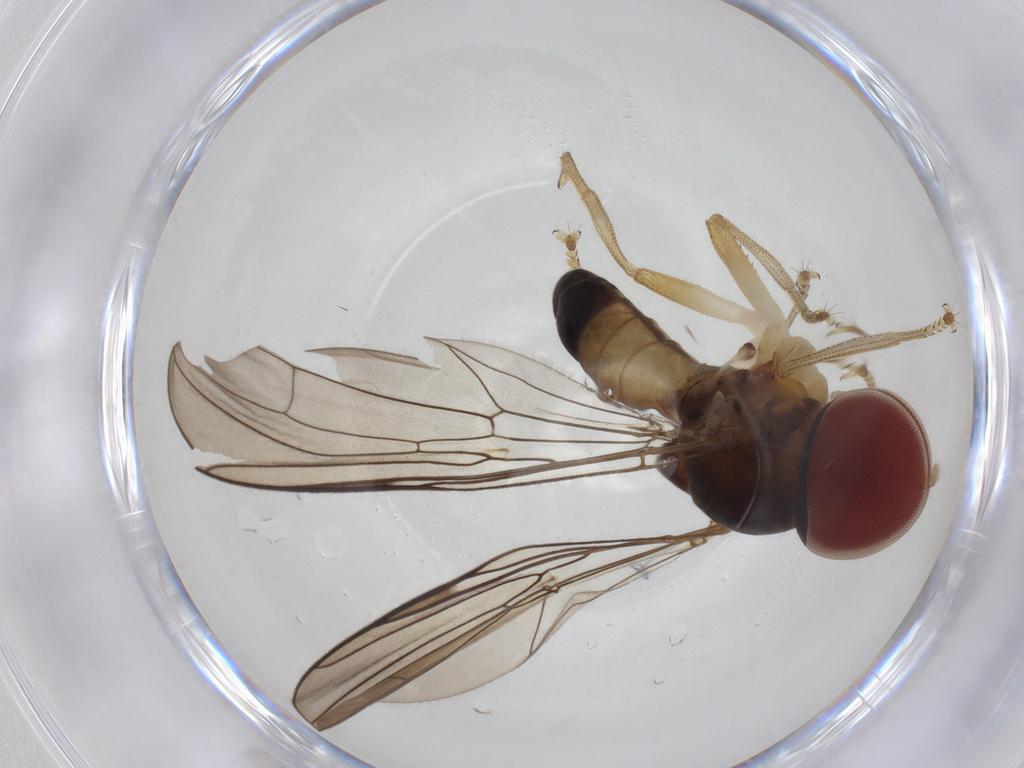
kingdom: Animalia
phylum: Arthropoda
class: Insecta
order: Diptera
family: Pipunculidae
